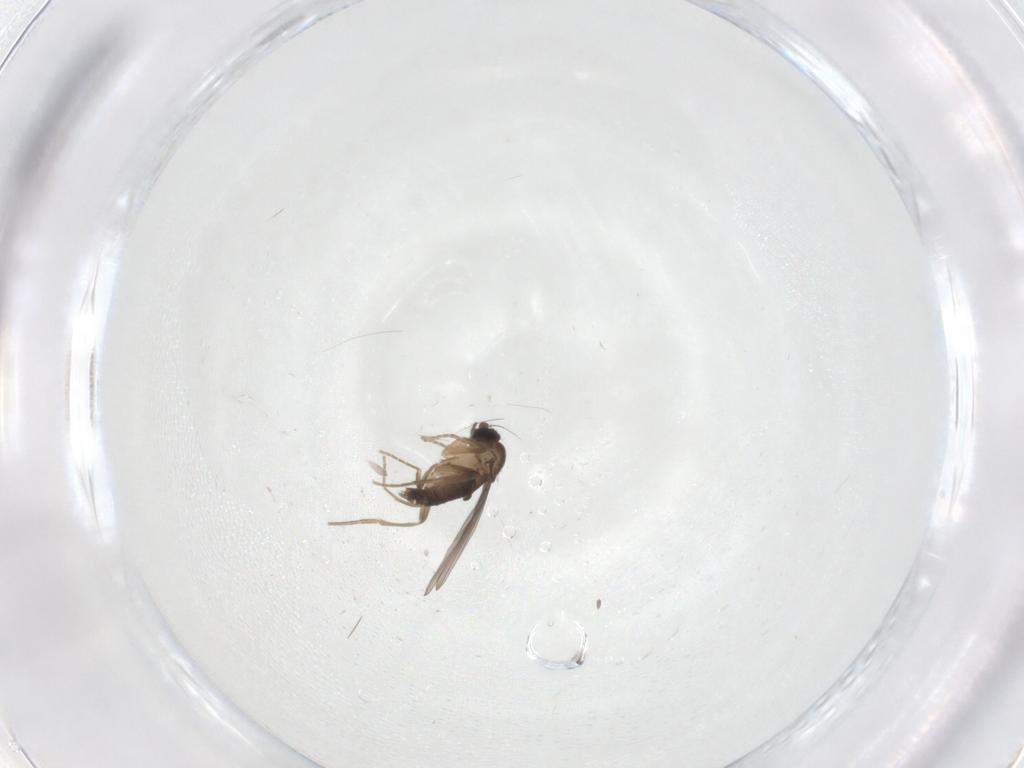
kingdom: Animalia
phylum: Arthropoda
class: Insecta
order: Diptera
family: Phoridae
